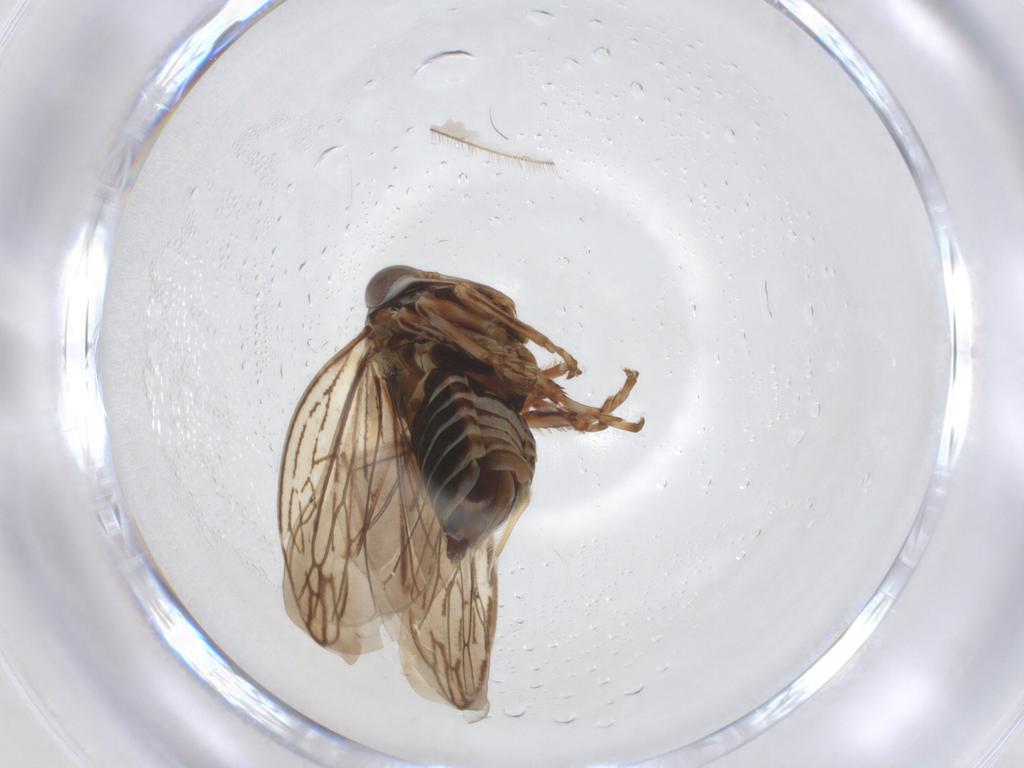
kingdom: Animalia
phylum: Arthropoda
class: Insecta
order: Hemiptera
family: Cicadellidae
